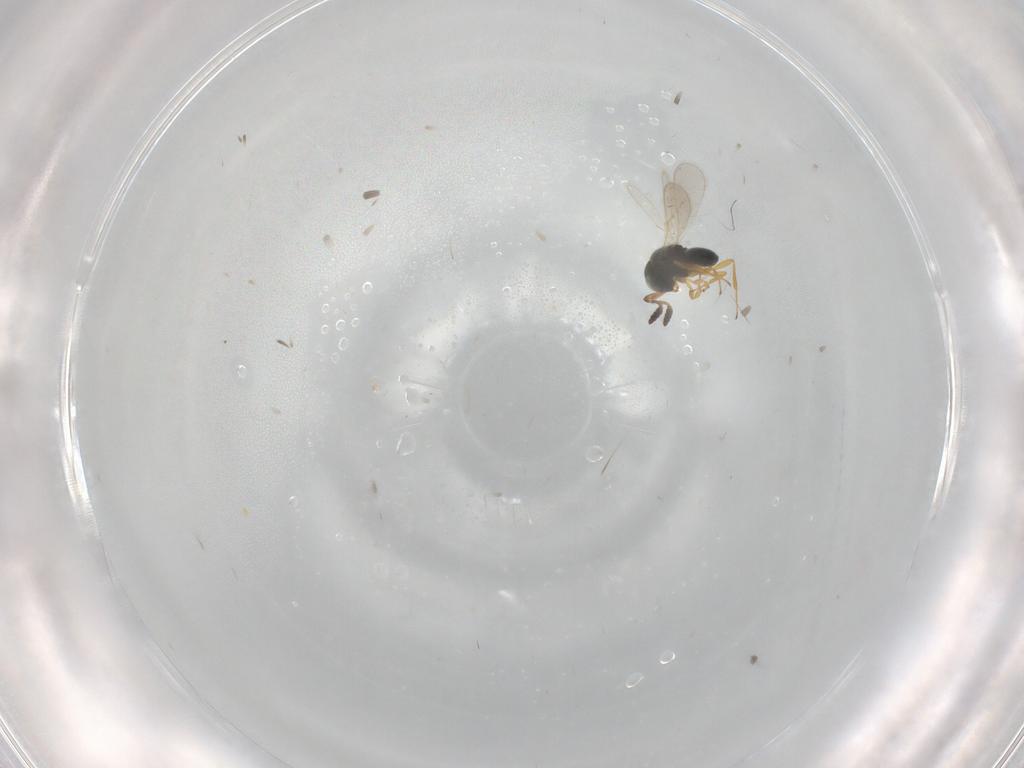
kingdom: Animalia
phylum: Arthropoda
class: Insecta
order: Hymenoptera
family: Scelionidae
